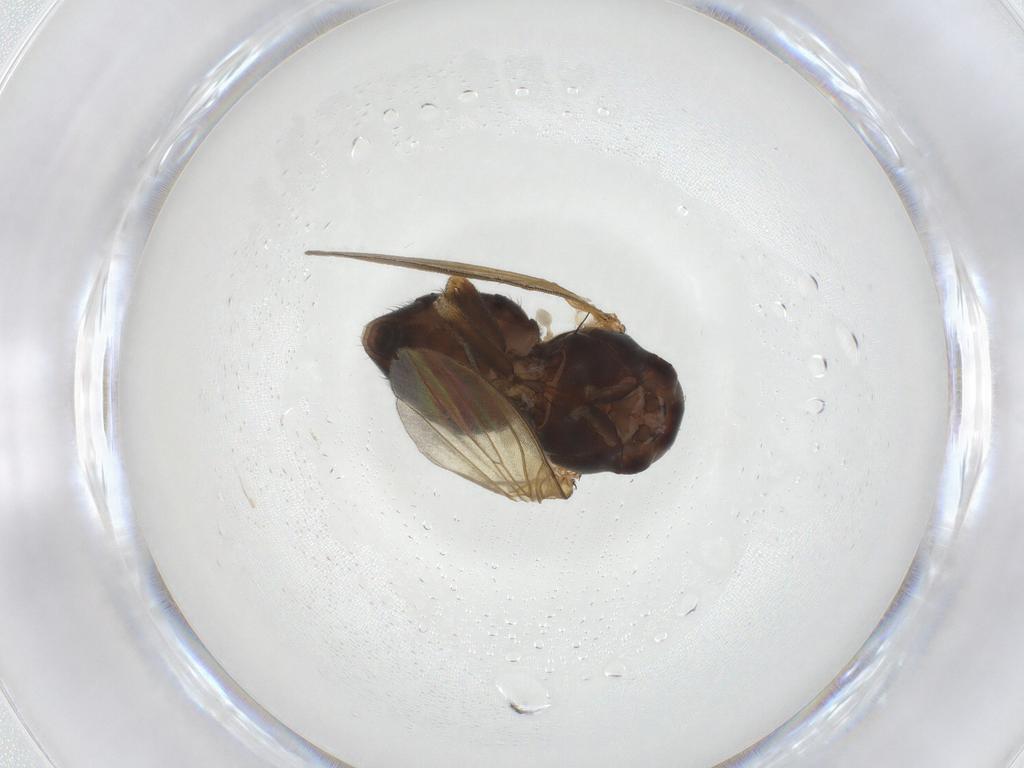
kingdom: Animalia
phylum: Arthropoda
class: Insecta
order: Diptera
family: Lauxaniidae
